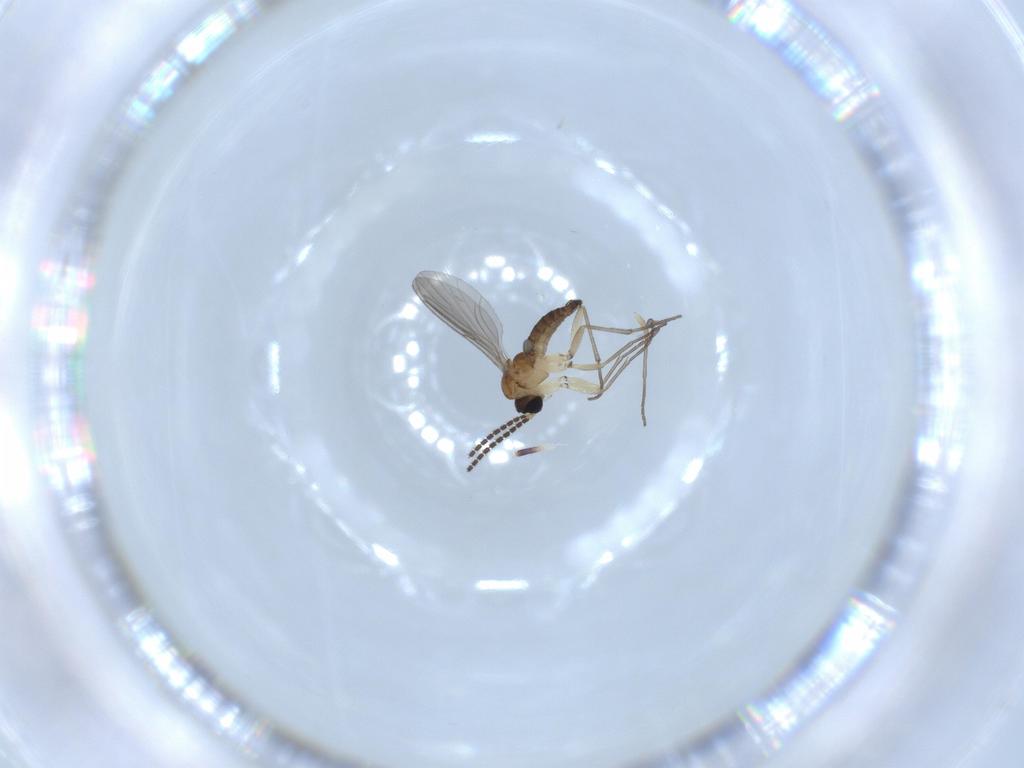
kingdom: Animalia
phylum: Arthropoda
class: Insecta
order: Diptera
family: Sciaridae
